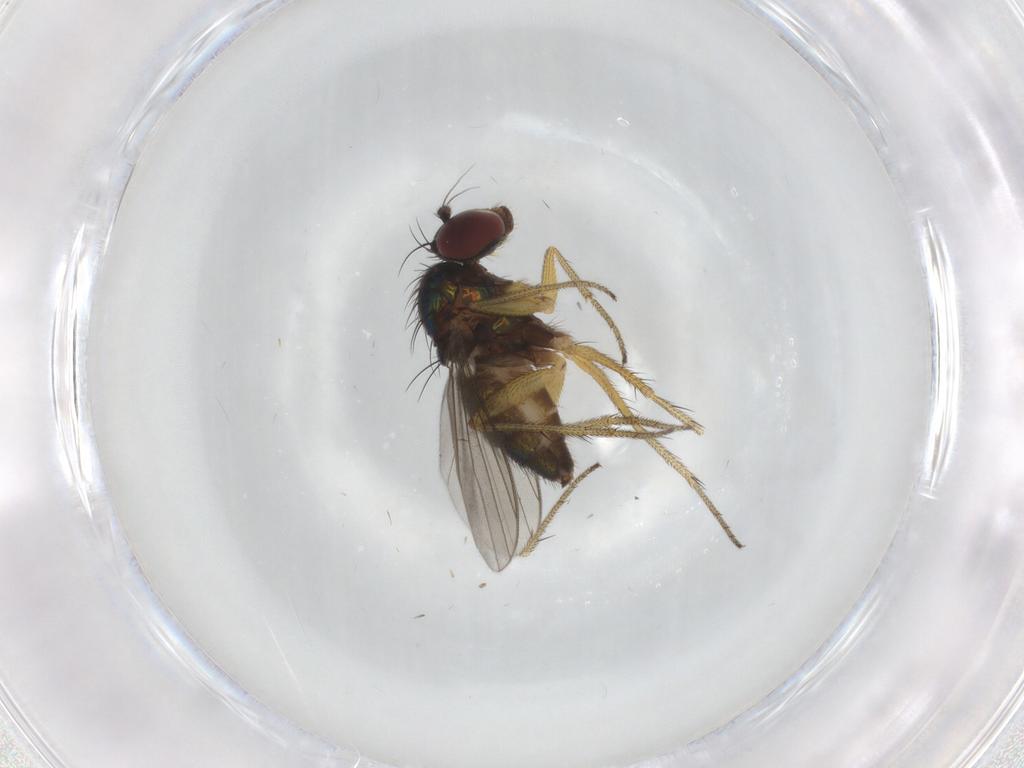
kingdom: Animalia
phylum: Arthropoda
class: Insecta
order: Diptera
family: Dolichopodidae
